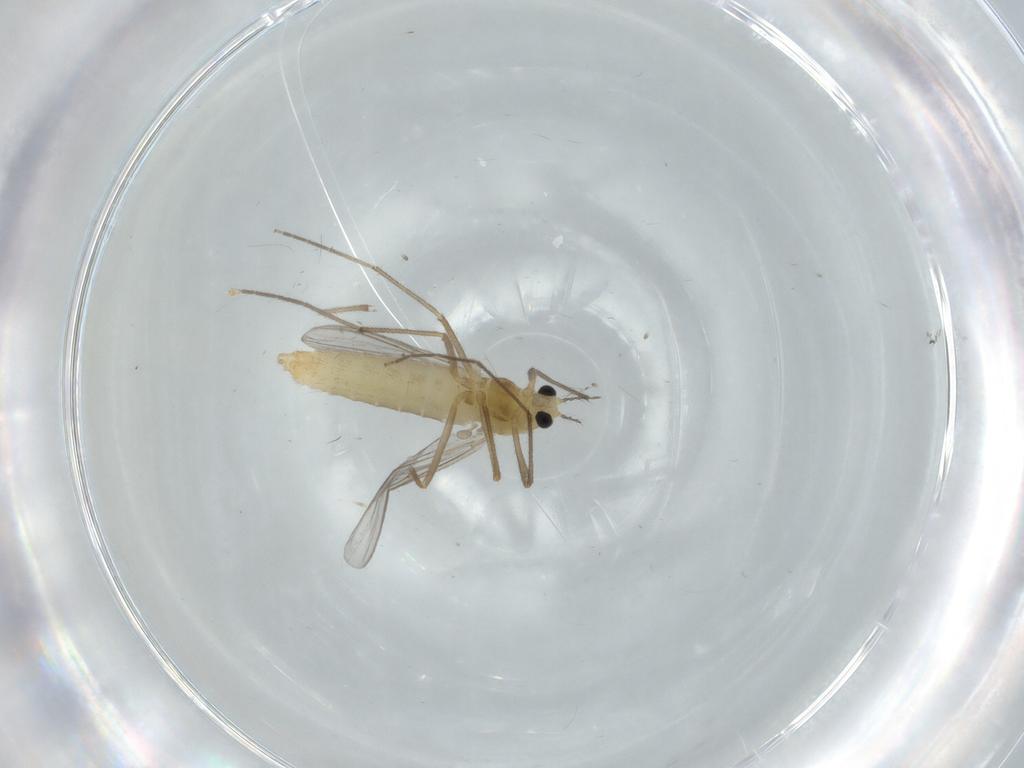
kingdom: Animalia
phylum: Arthropoda
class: Insecta
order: Diptera
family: Chironomidae
